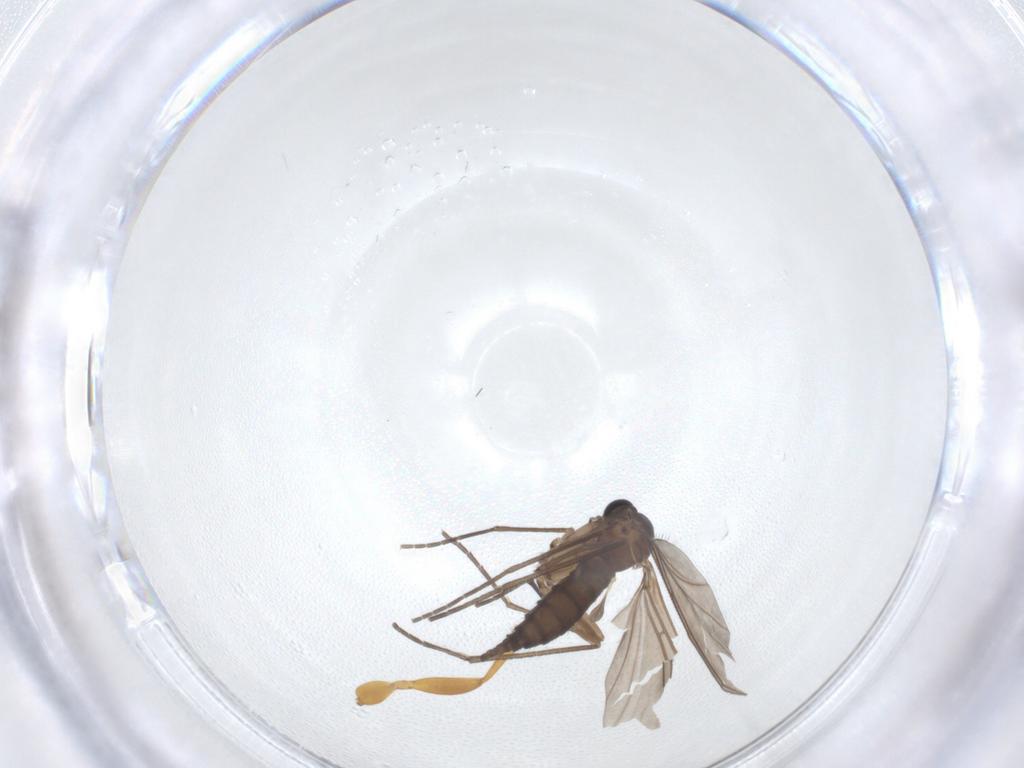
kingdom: Animalia
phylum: Arthropoda
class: Insecta
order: Diptera
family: Sciaridae
